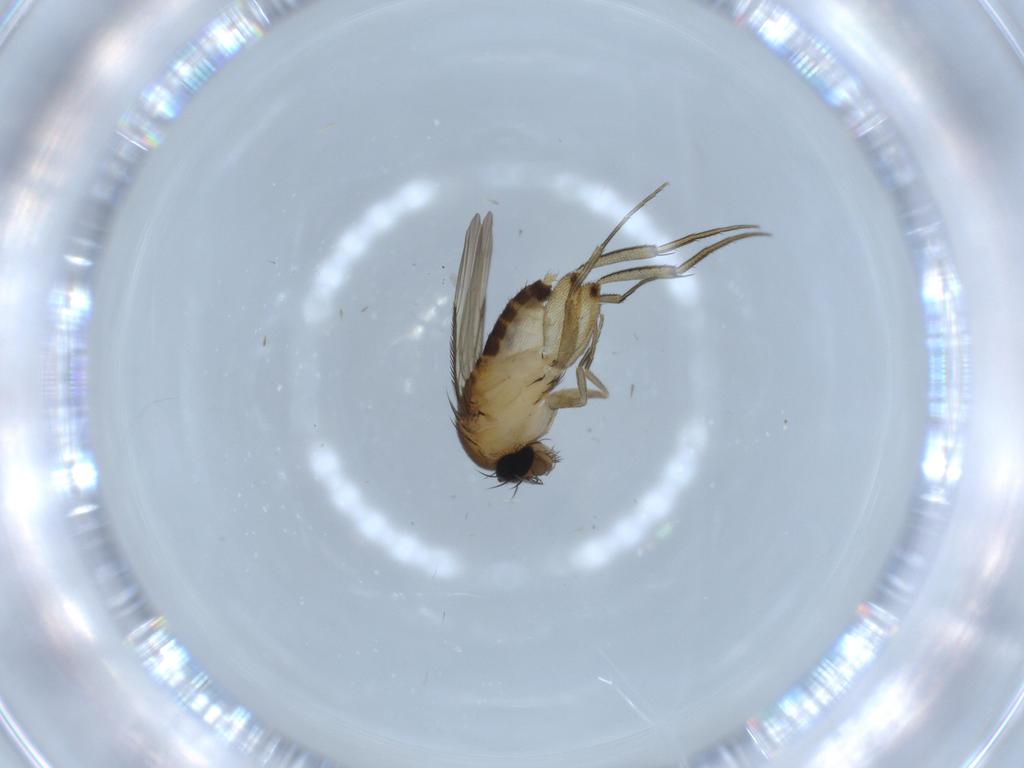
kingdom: Animalia
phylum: Arthropoda
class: Insecta
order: Diptera
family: Phoridae
